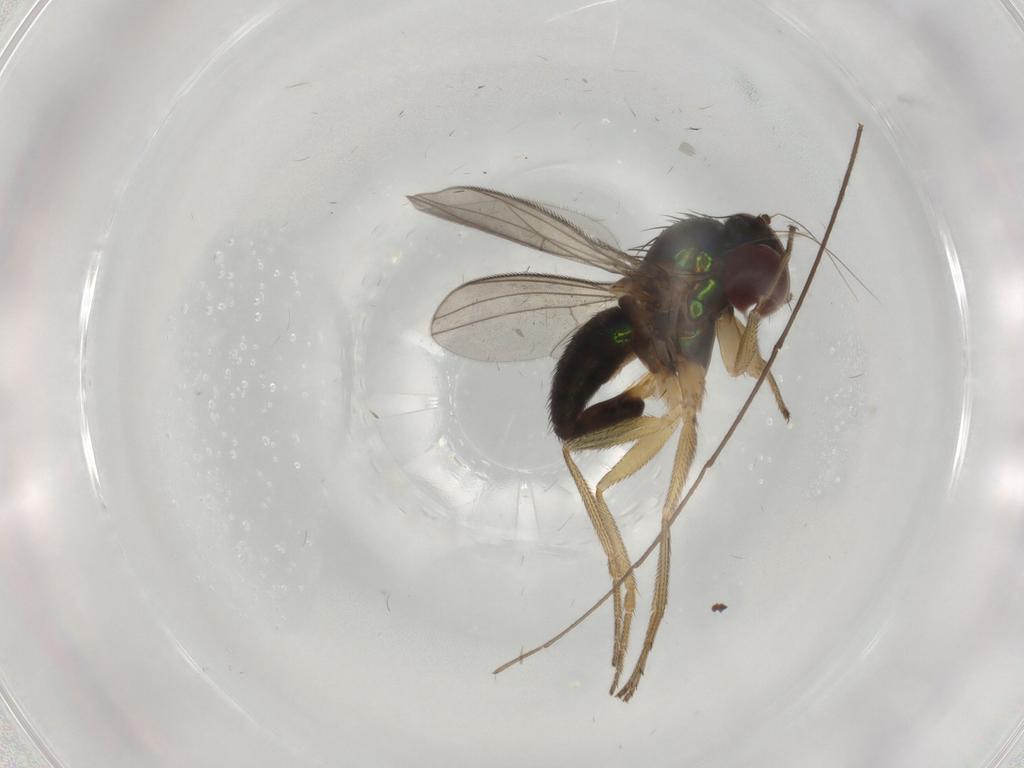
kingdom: Animalia
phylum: Arthropoda
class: Insecta
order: Diptera
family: Dolichopodidae
